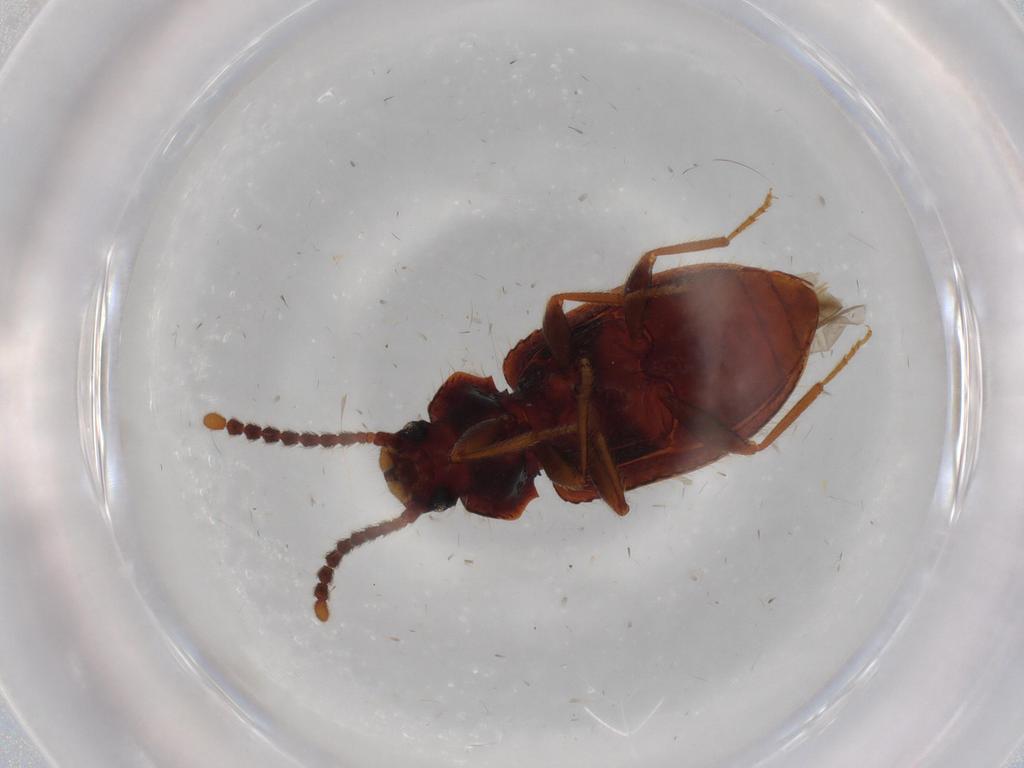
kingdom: Animalia
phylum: Arthropoda
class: Insecta
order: Coleoptera
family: Tenebrionidae
